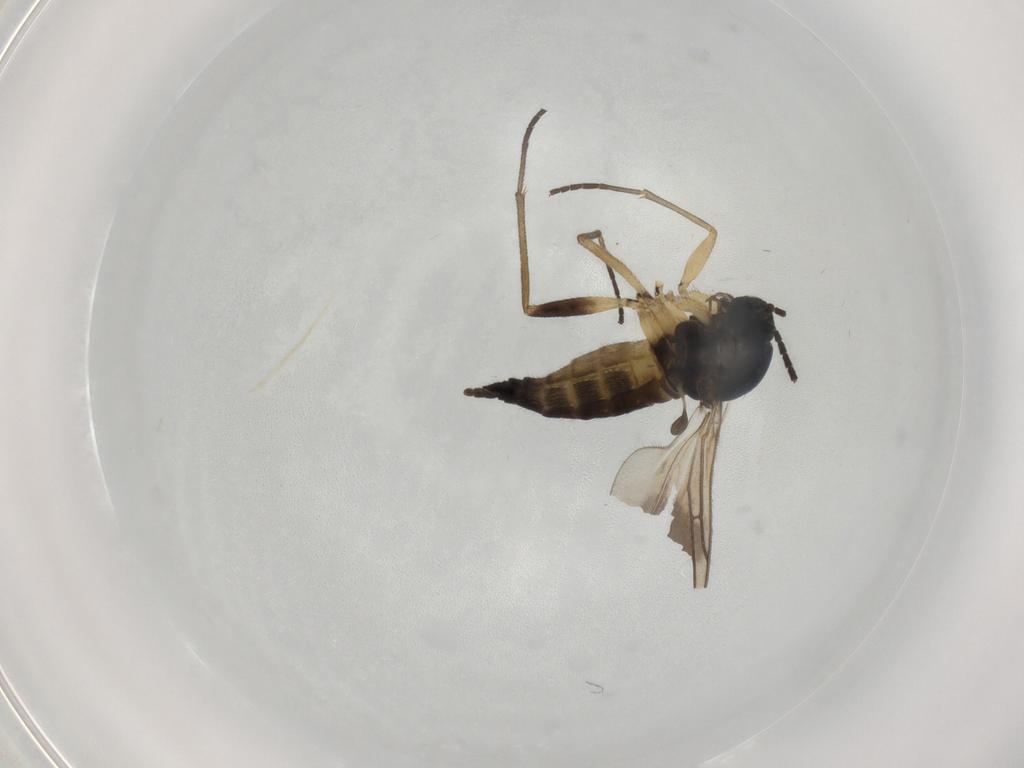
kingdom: Animalia
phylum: Arthropoda
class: Insecta
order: Diptera
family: Sciaridae
